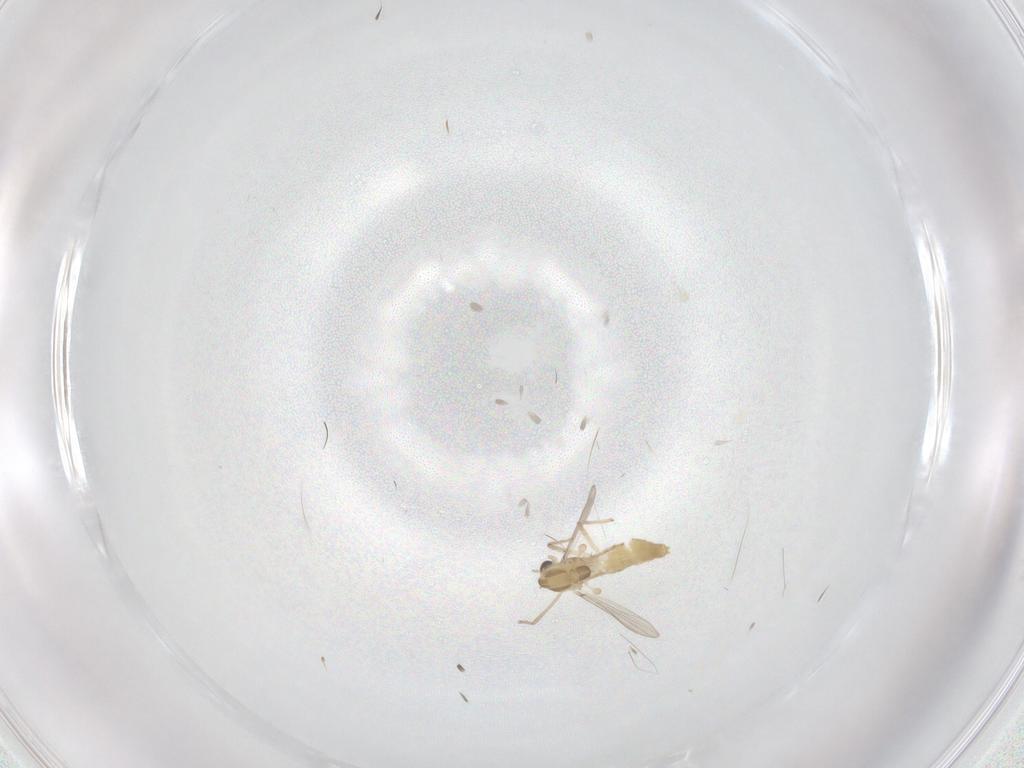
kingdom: Animalia
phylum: Arthropoda
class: Insecta
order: Diptera
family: Chironomidae
